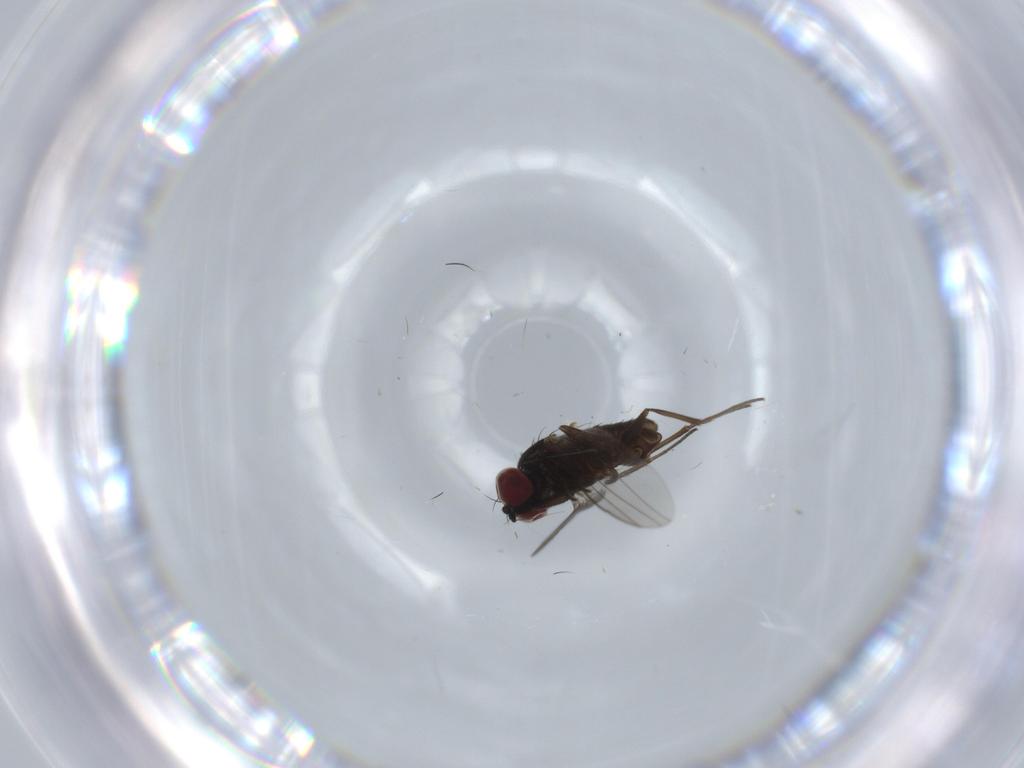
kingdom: Animalia
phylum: Arthropoda
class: Insecta
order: Diptera
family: Dolichopodidae
